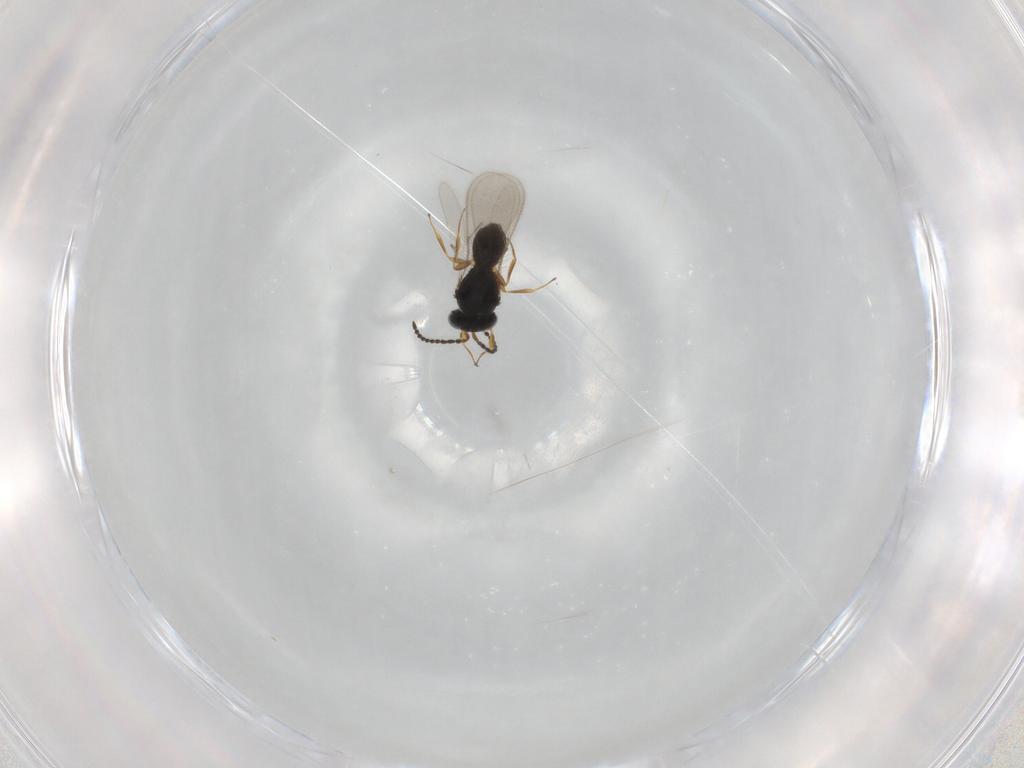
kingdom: Animalia
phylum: Arthropoda
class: Insecta
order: Hymenoptera
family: Scelionidae
